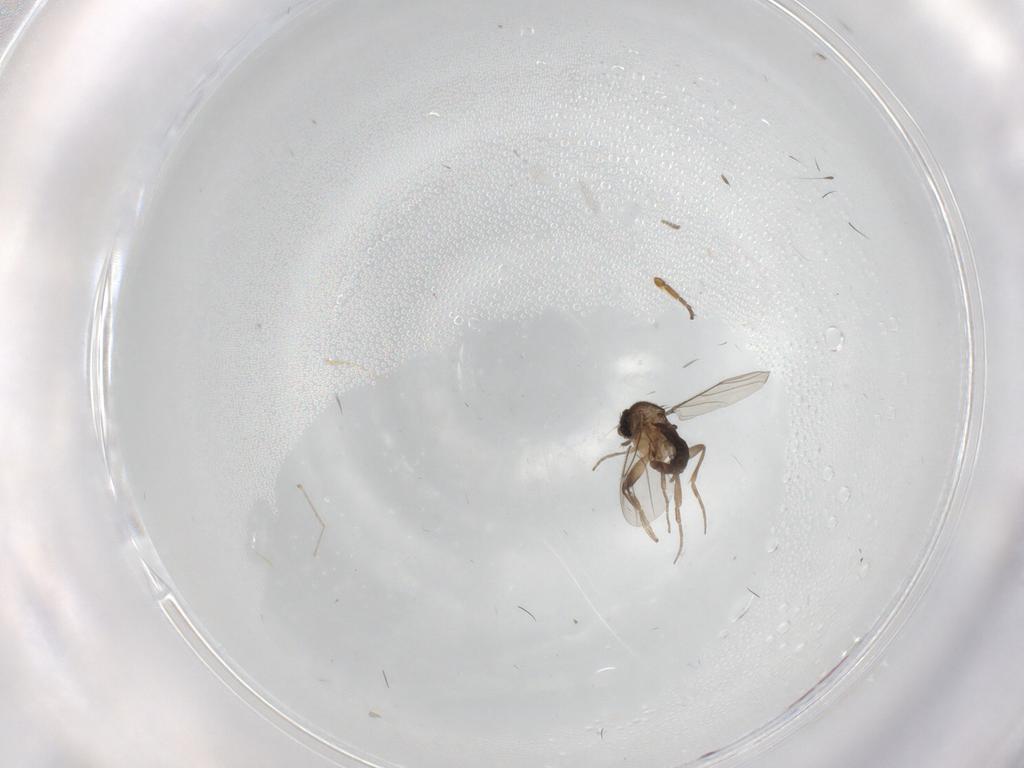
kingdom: Animalia
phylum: Arthropoda
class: Insecta
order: Diptera
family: Sphaeroceridae
